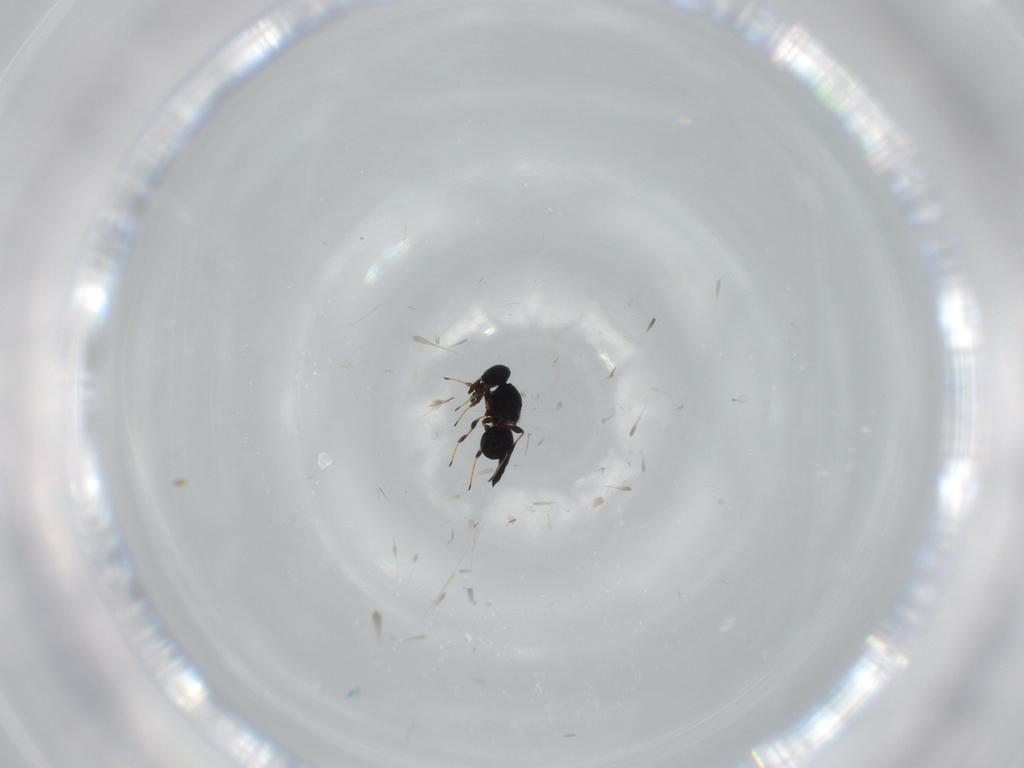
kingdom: Animalia
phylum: Arthropoda
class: Insecta
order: Hymenoptera
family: Platygastridae
